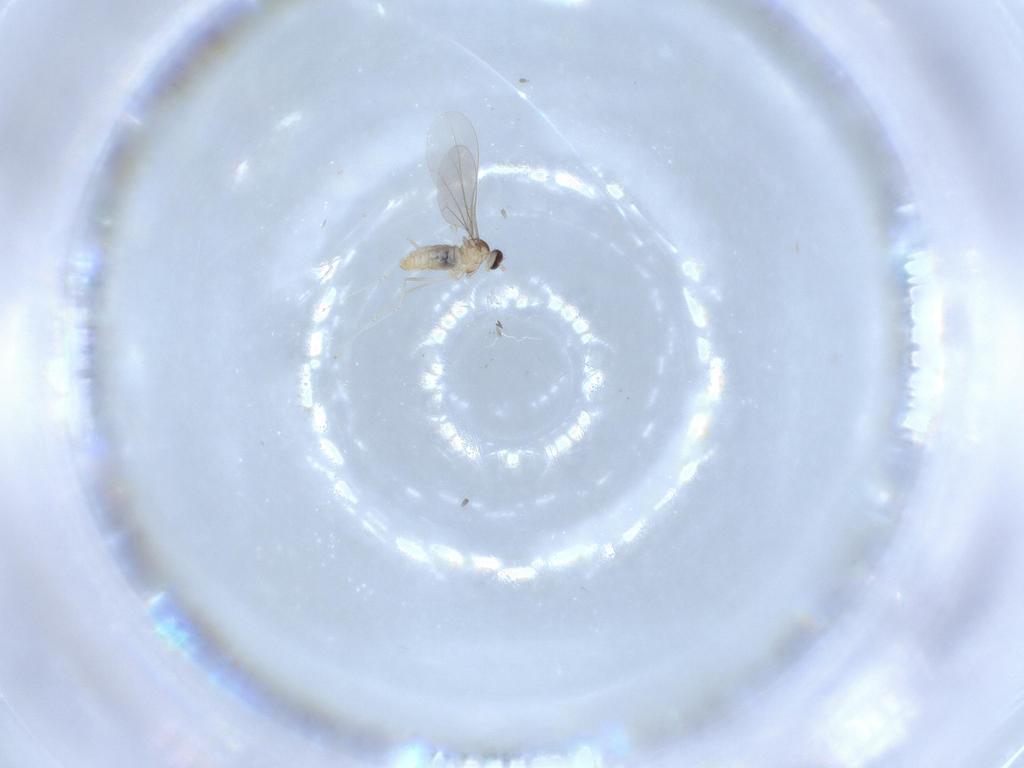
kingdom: Animalia
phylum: Arthropoda
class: Insecta
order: Diptera
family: Cecidomyiidae
